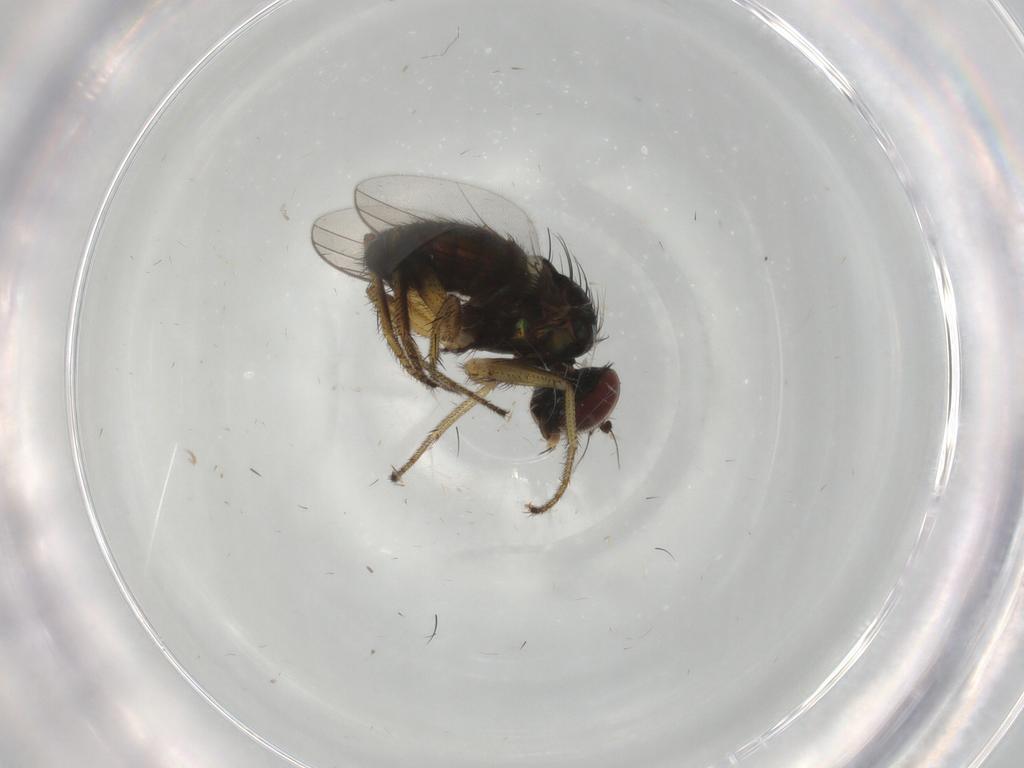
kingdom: Animalia
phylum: Arthropoda
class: Insecta
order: Diptera
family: Dolichopodidae
